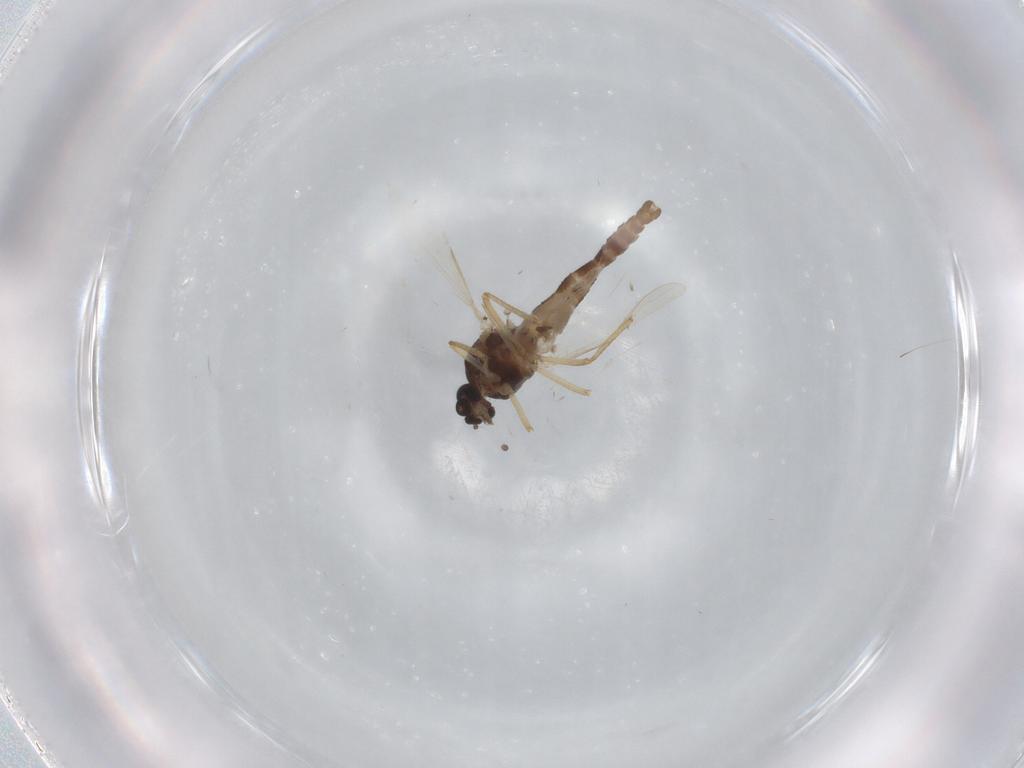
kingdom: Animalia
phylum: Arthropoda
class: Insecta
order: Diptera
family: Ceratopogonidae
